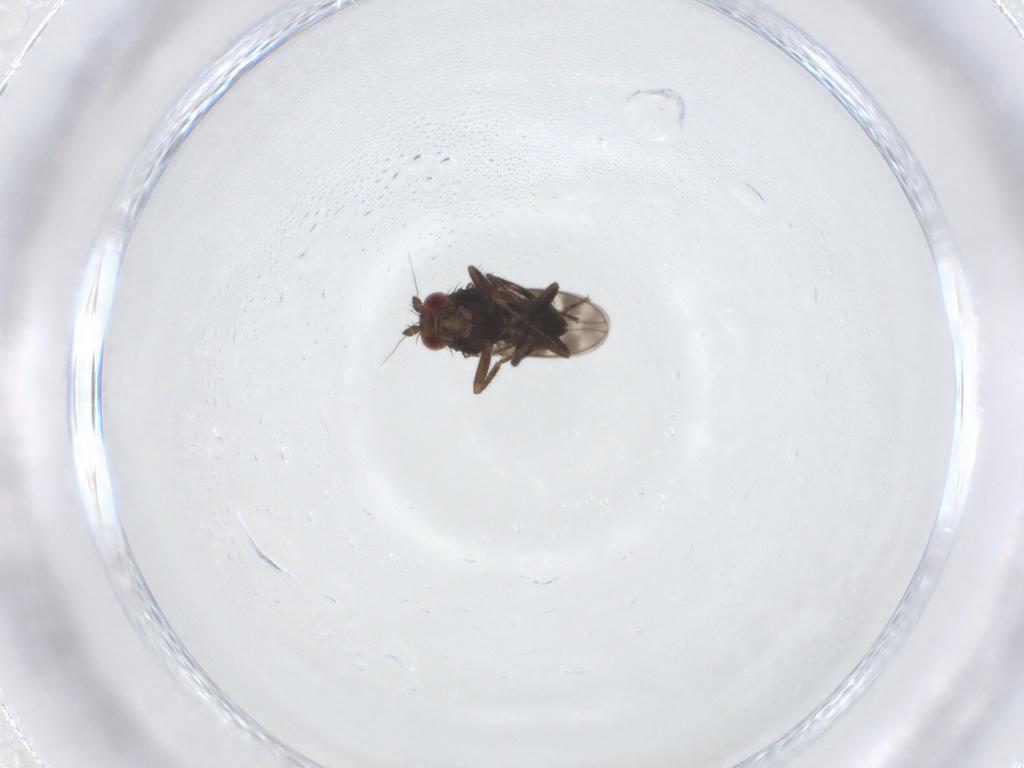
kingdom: Animalia
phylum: Arthropoda
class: Insecta
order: Diptera
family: Sphaeroceridae
